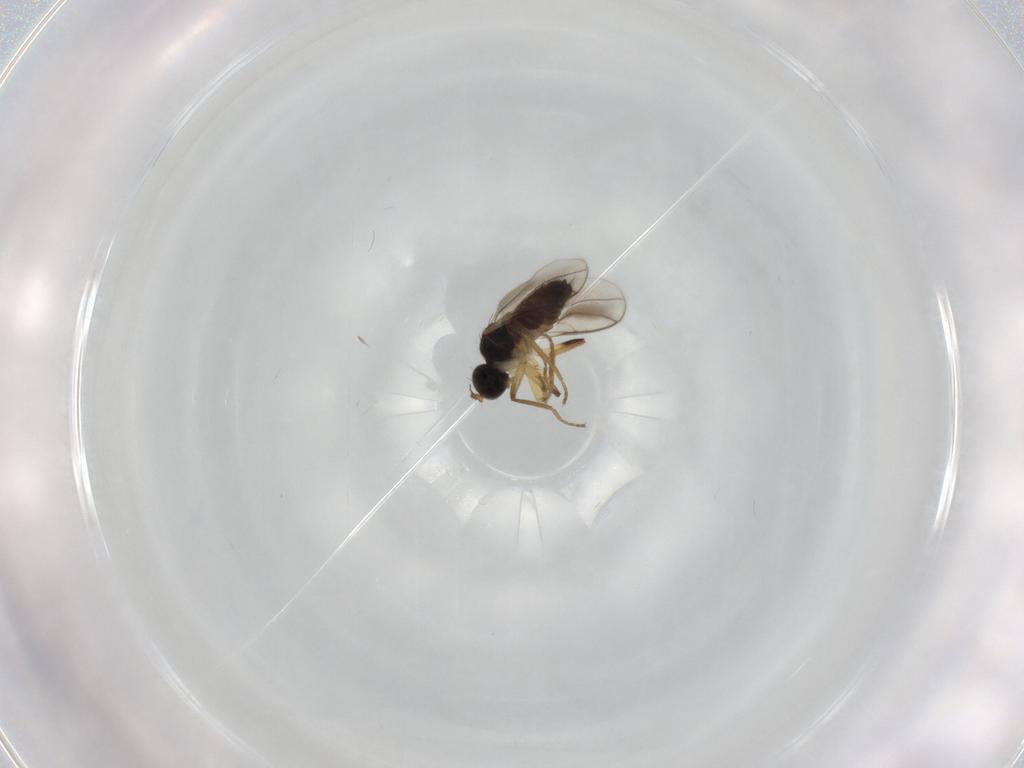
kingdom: Animalia
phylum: Arthropoda
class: Insecta
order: Diptera
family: Hybotidae
